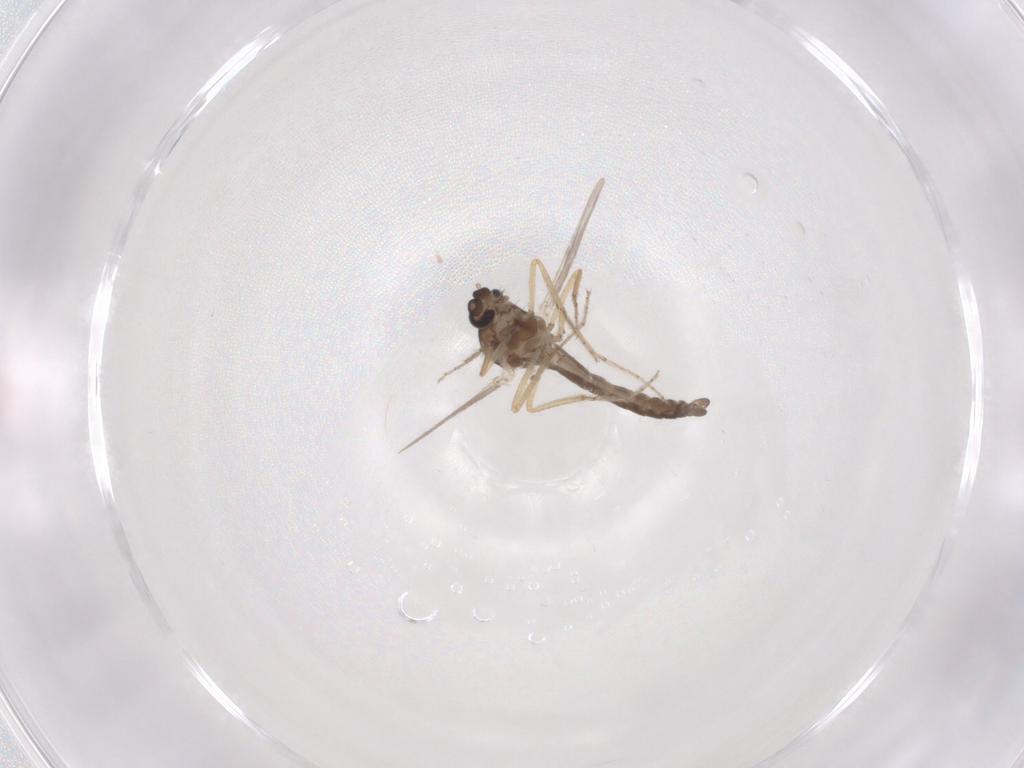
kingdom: Animalia
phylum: Arthropoda
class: Insecta
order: Diptera
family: Ceratopogonidae
